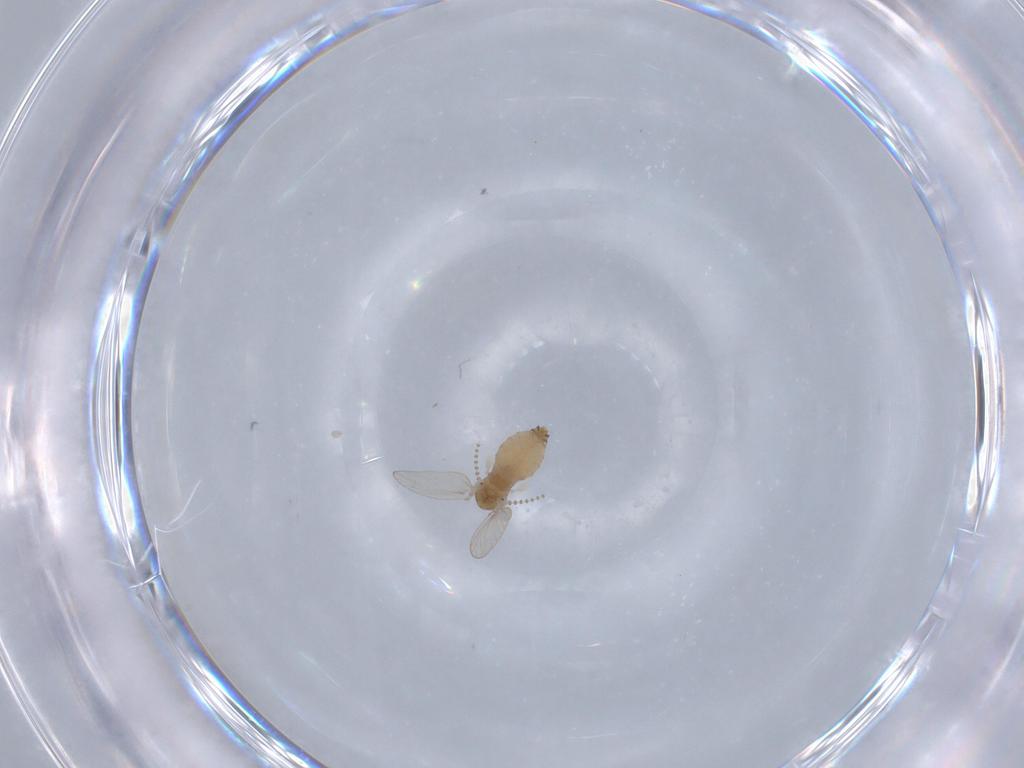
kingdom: Animalia
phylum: Arthropoda
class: Insecta
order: Diptera
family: Psychodidae
